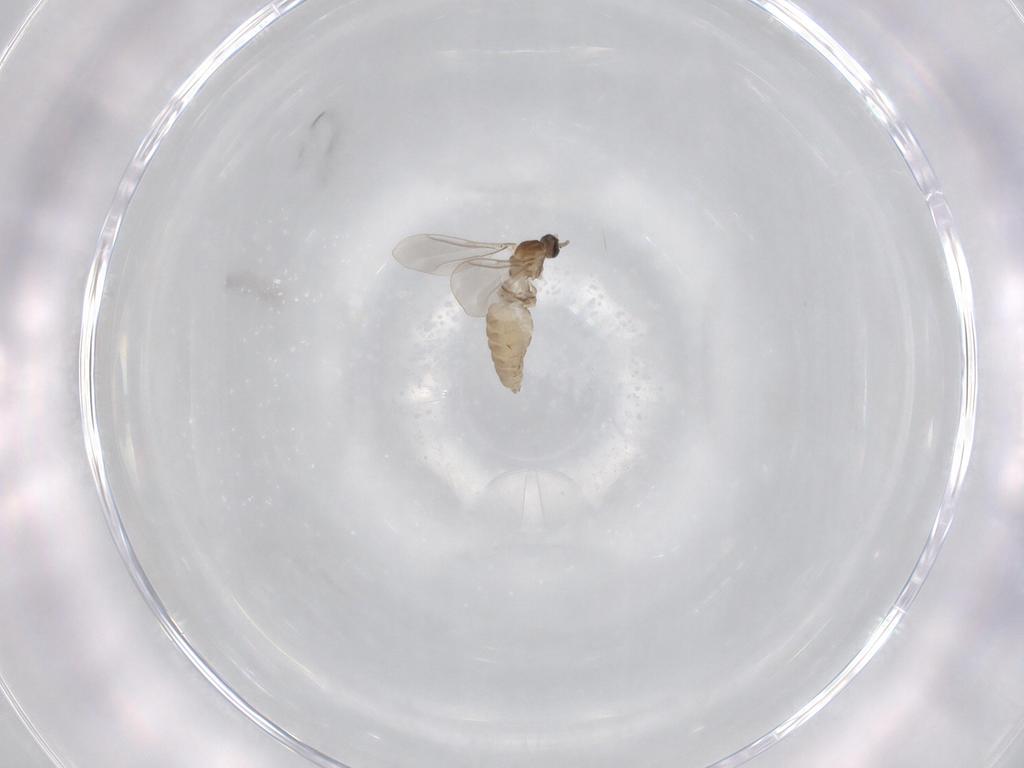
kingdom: Animalia
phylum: Arthropoda
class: Insecta
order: Diptera
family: Cecidomyiidae
